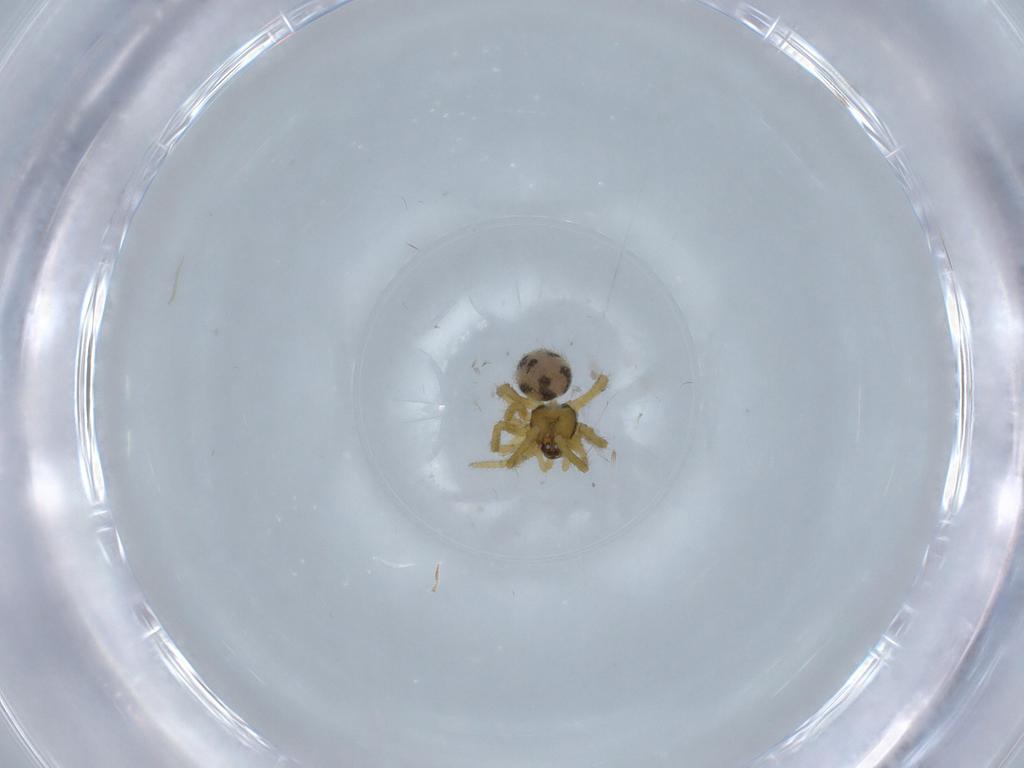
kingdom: Animalia
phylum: Arthropoda
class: Arachnida
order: Araneae
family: Theridiidae
